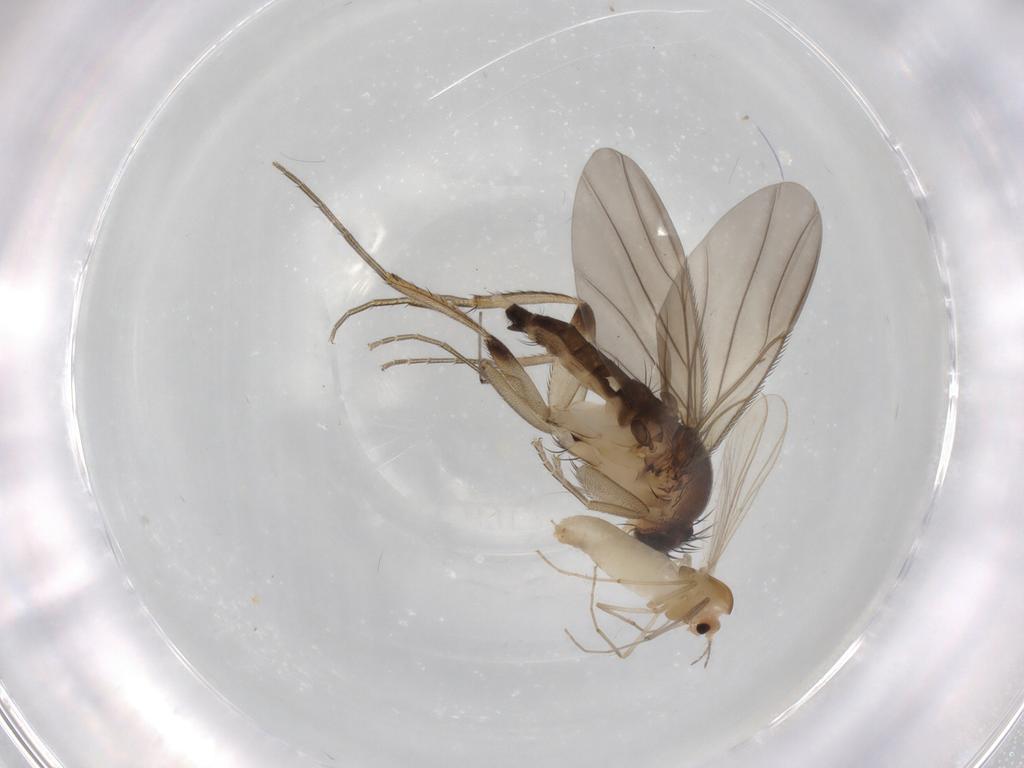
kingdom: Animalia
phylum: Arthropoda
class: Insecta
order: Diptera
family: Phoridae
